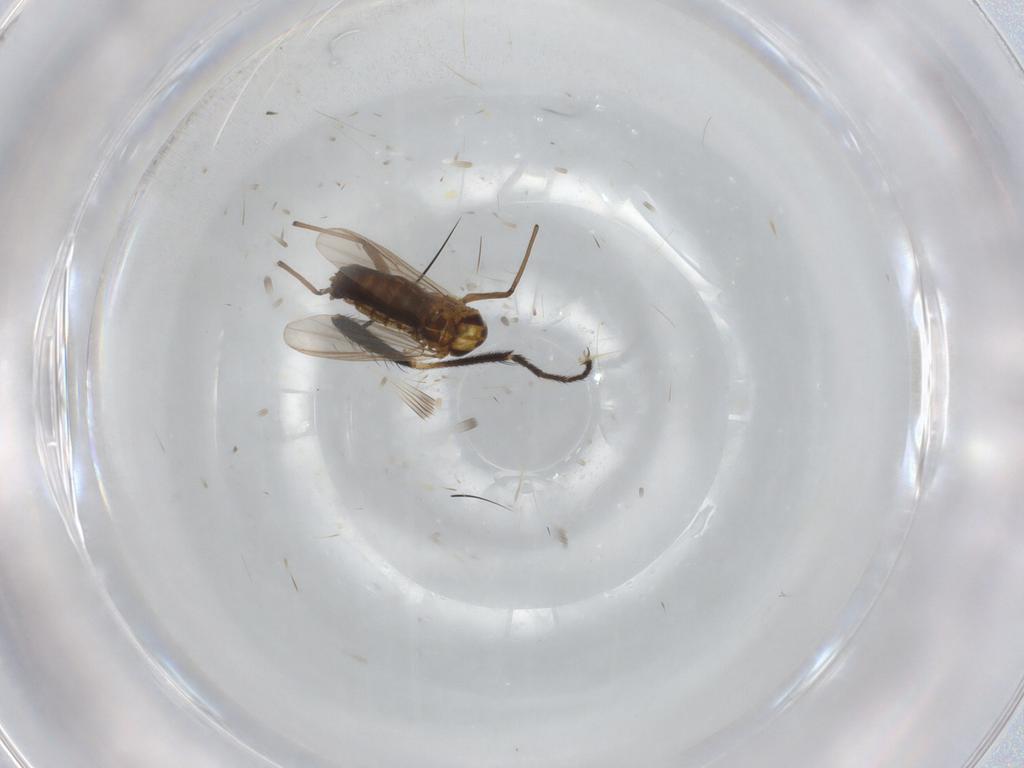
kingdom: Animalia
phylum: Arthropoda
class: Insecta
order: Diptera
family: Chironomidae
